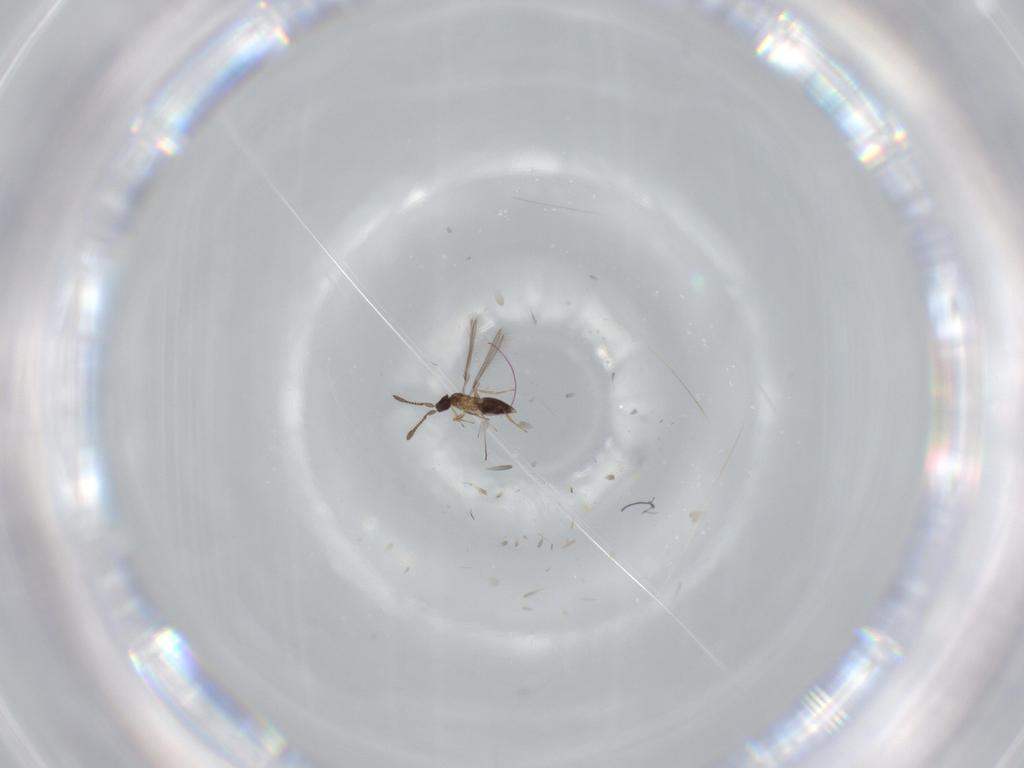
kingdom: Animalia
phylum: Arthropoda
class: Insecta
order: Hymenoptera
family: Mymaridae
